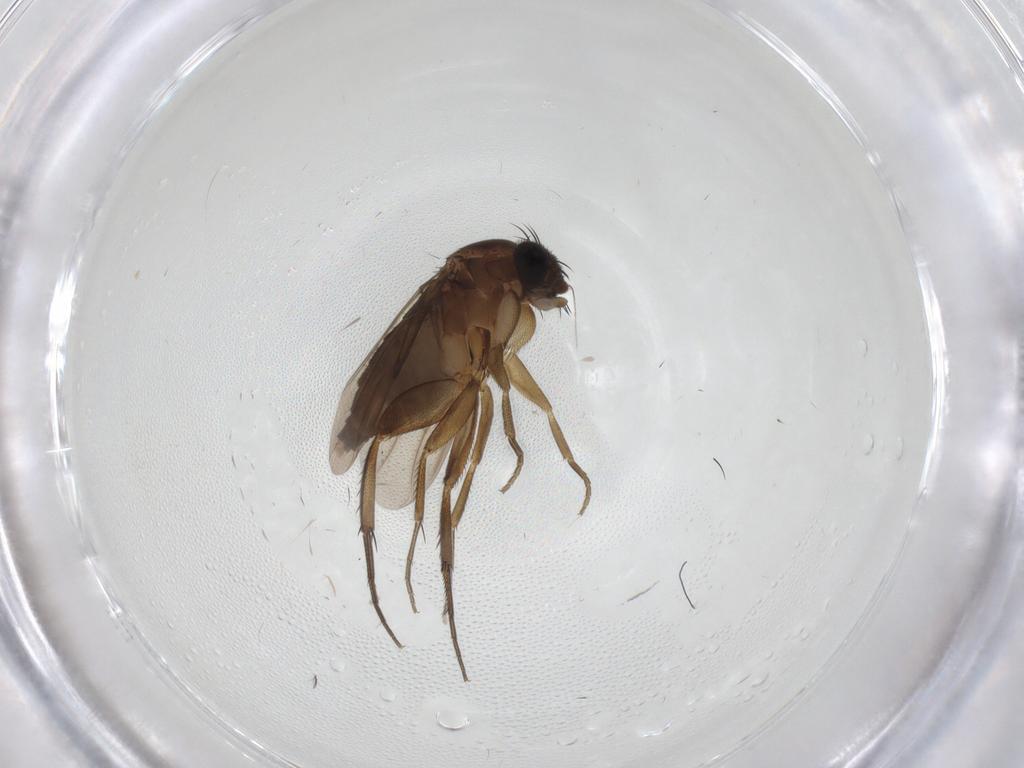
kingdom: Animalia
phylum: Arthropoda
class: Insecta
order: Diptera
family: Phoridae
